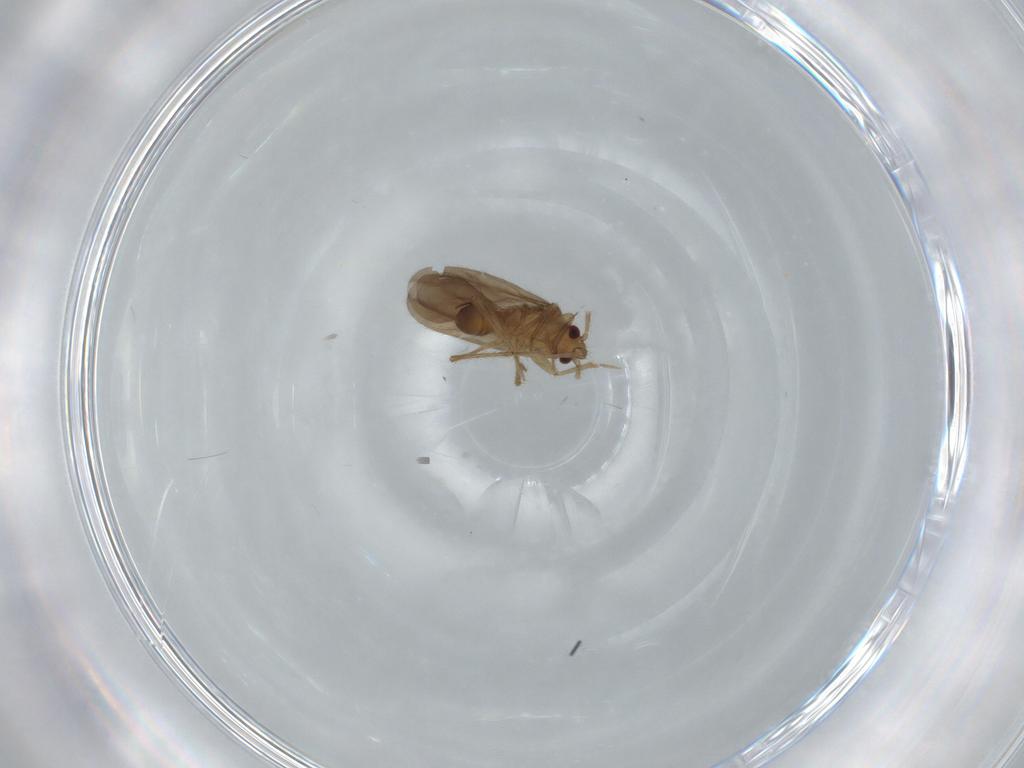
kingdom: Animalia
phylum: Arthropoda
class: Insecta
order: Hemiptera
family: Ceratocombidae
